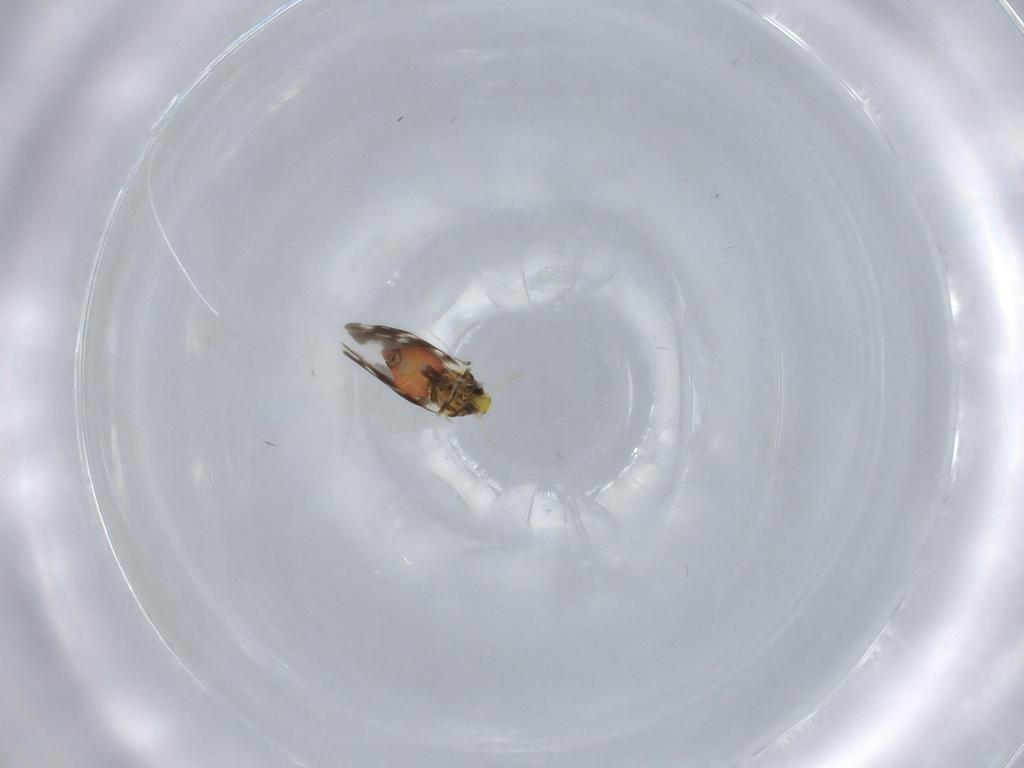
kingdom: Animalia
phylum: Arthropoda
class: Insecta
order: Hemiptera
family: Aleyrodidae
